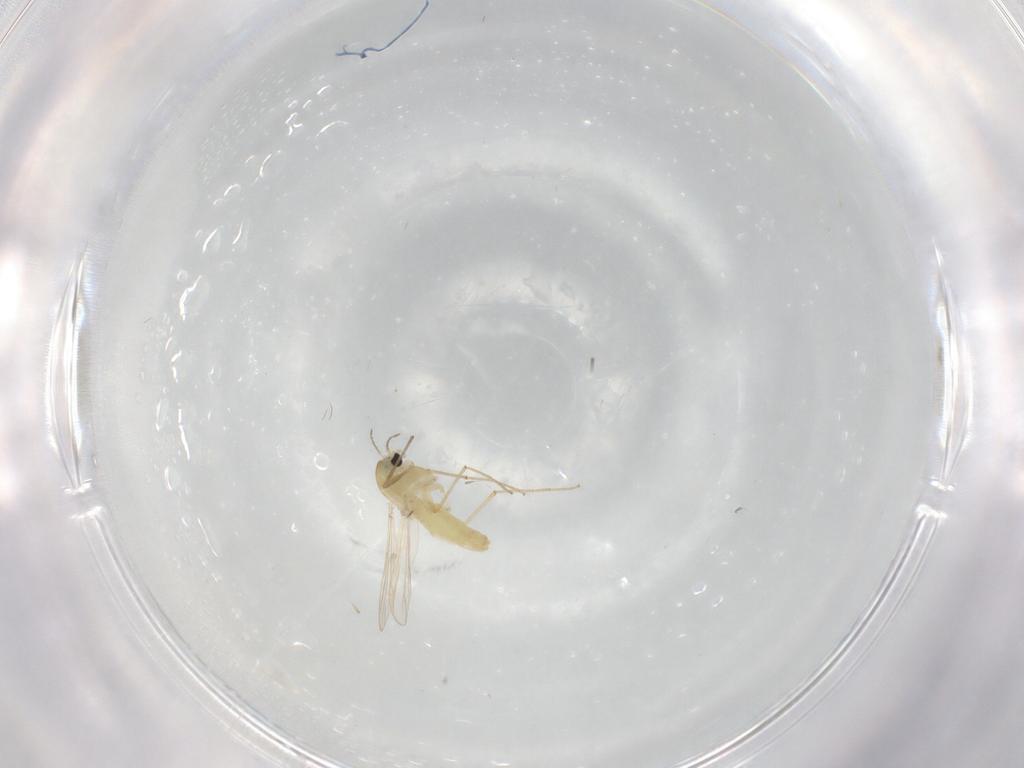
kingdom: Animalia
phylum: Arthropoda
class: Insecta
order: Diptera
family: Chironomidae
